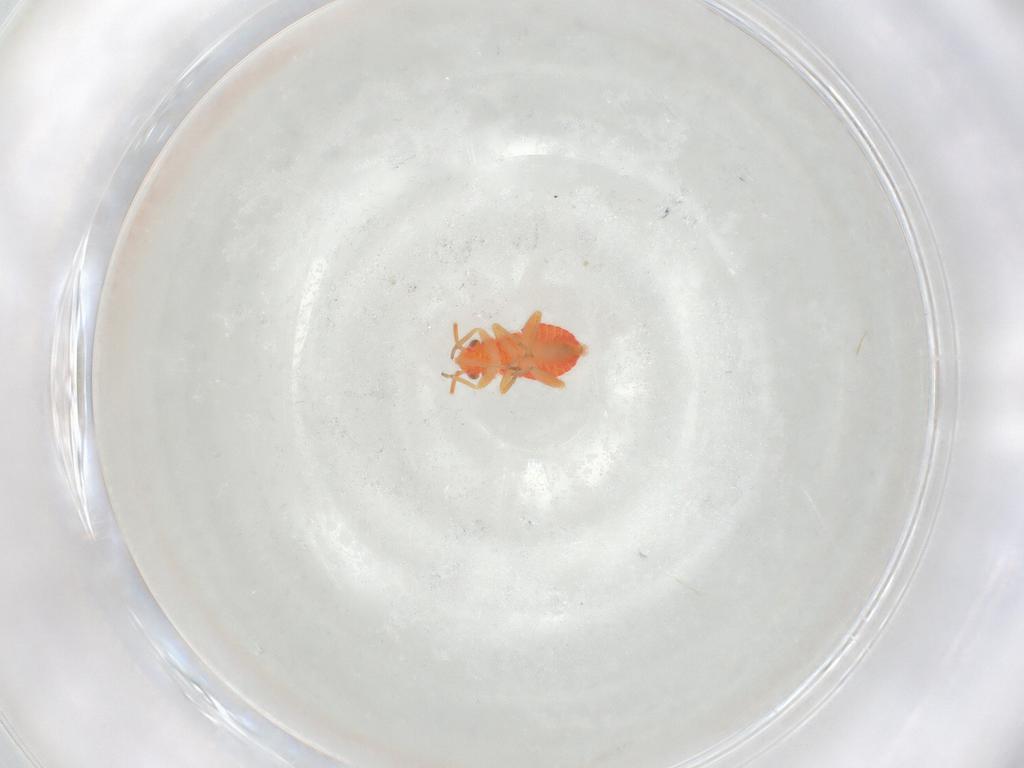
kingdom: Animalia
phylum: Arthropoda
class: Insecta
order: Hemiptera
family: Miridae
